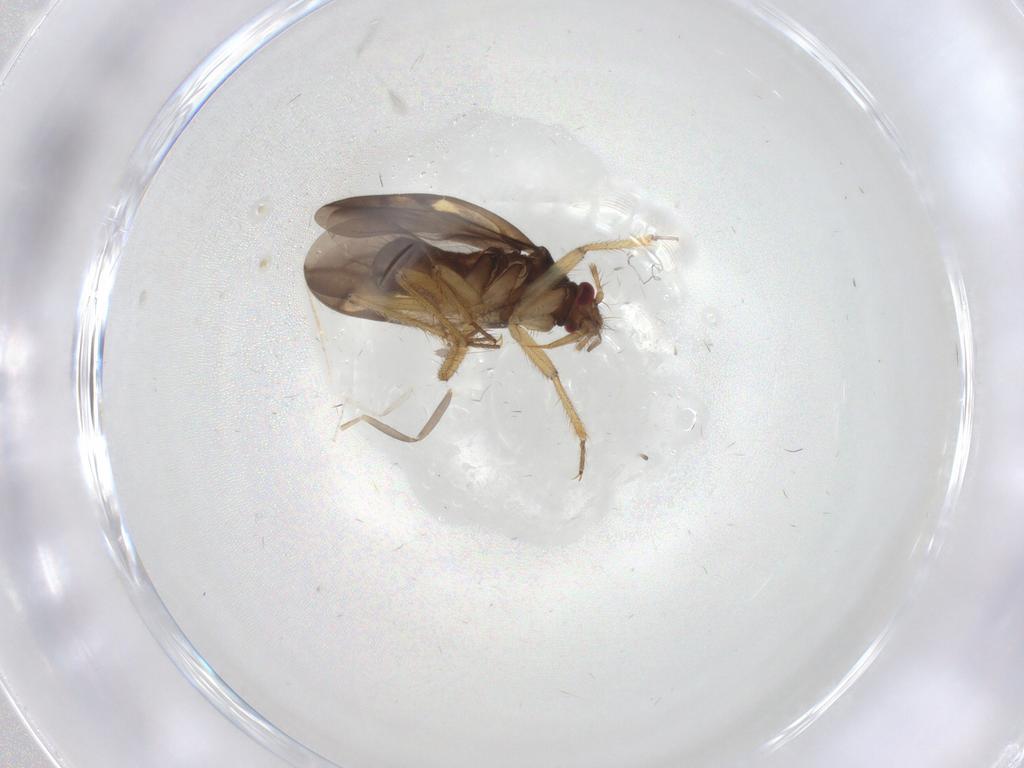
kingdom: Animalia
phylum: Arthropoda
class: Insecta
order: Hemiptera
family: Ceratocombidae
